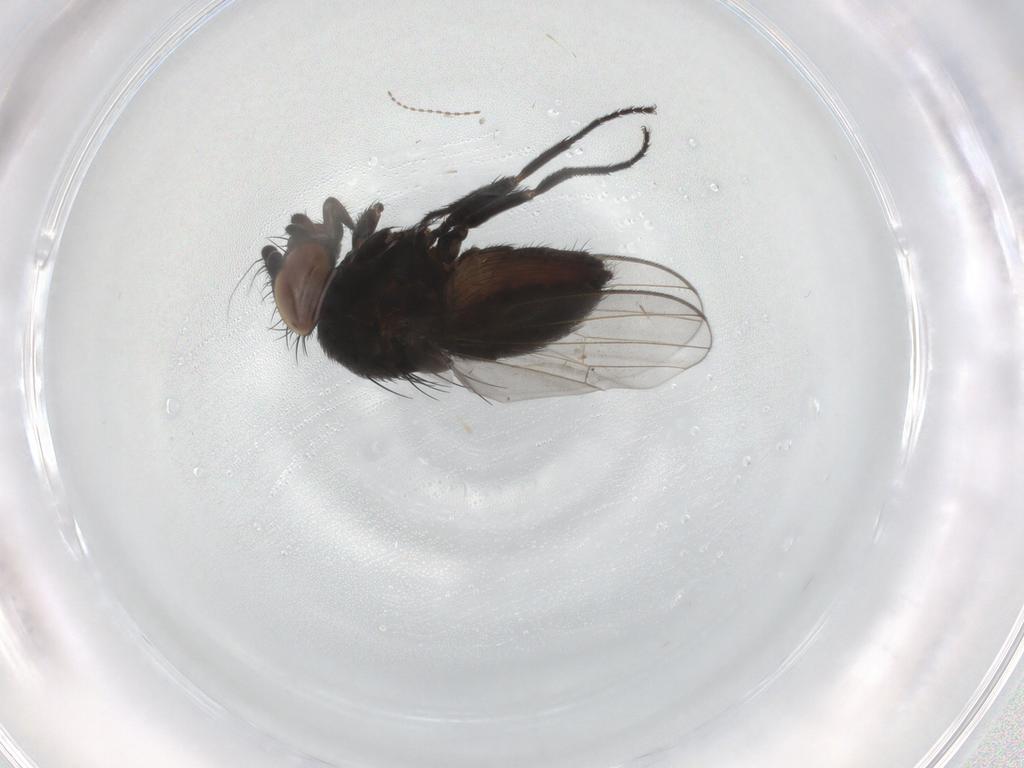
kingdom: Animalia
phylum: Arthropoda
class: Insecta
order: Diptera
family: Milichiidae
